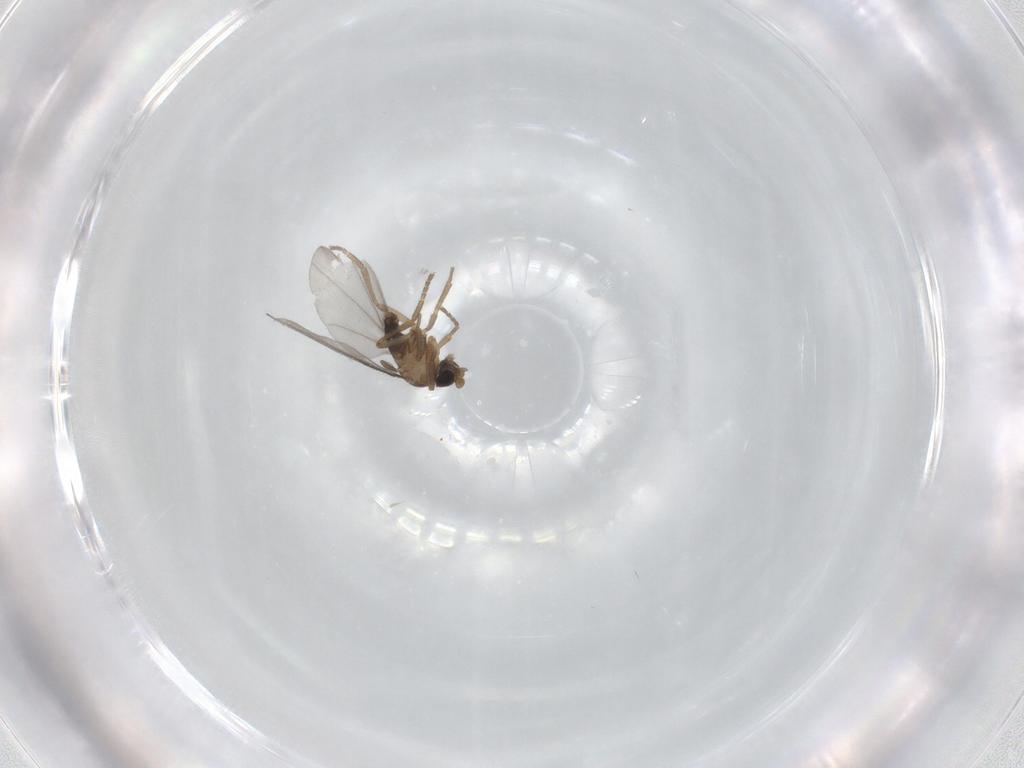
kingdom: Animalia
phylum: Arthropoda
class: Insecta
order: Diptera
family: Phoridae
